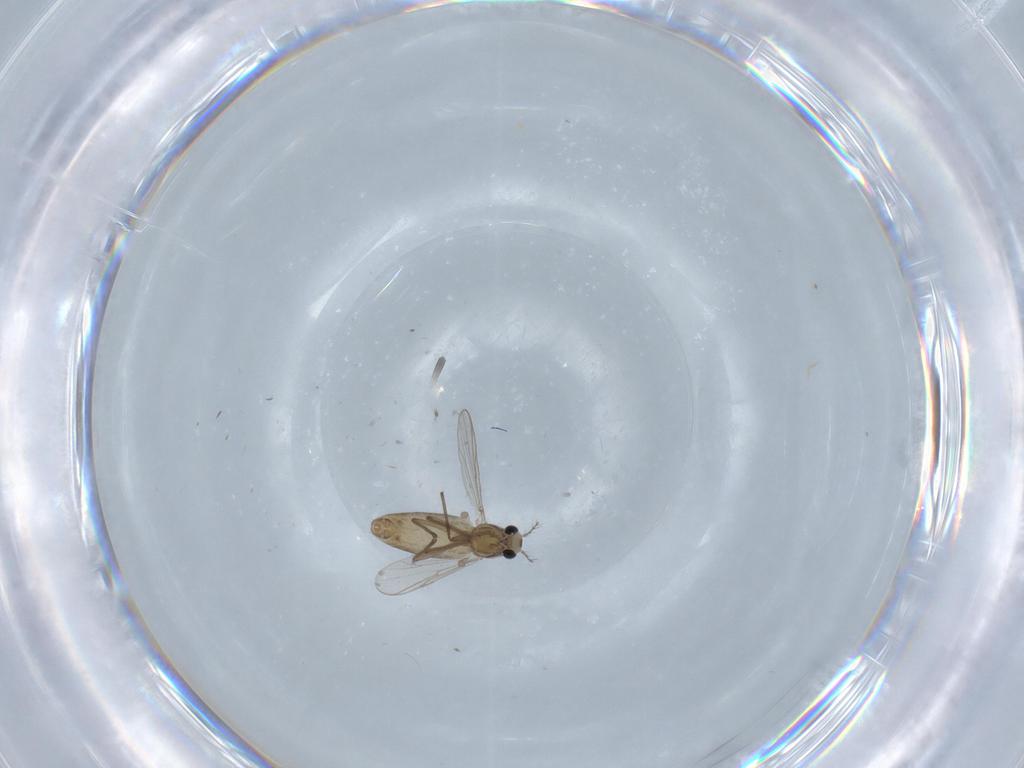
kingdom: Animalia
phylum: Arthropoda
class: Insecta
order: Diptera
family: Chironomidae
